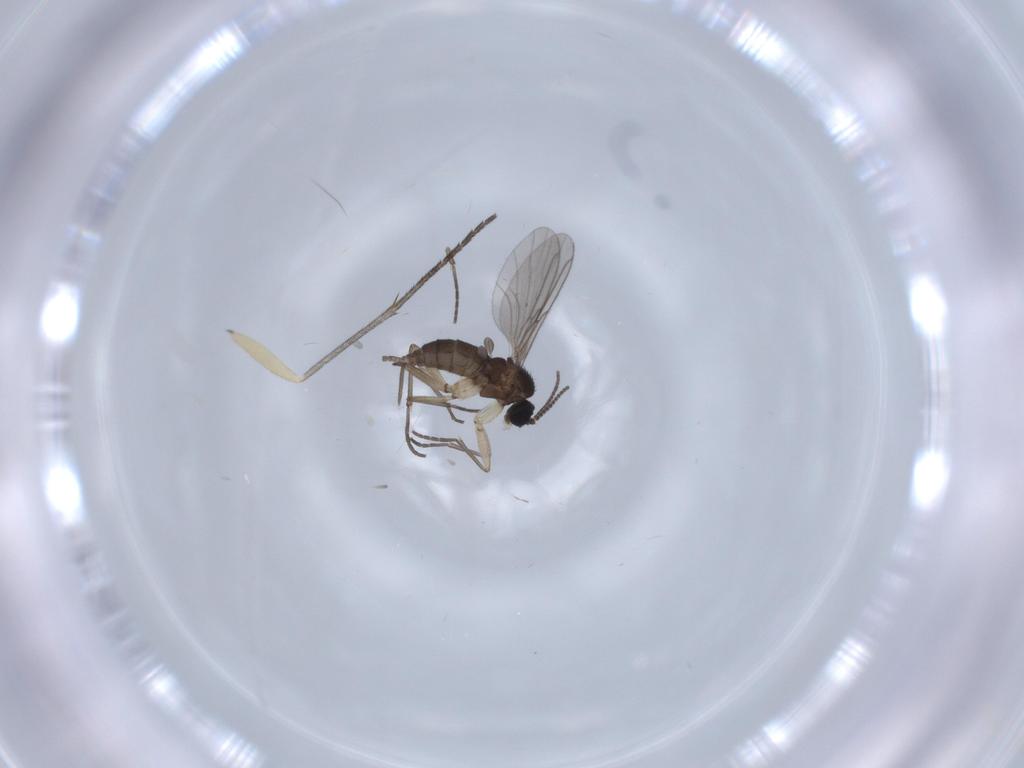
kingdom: Animalia
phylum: Arthropoda
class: Insecta
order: Diptera
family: Sciaridae
